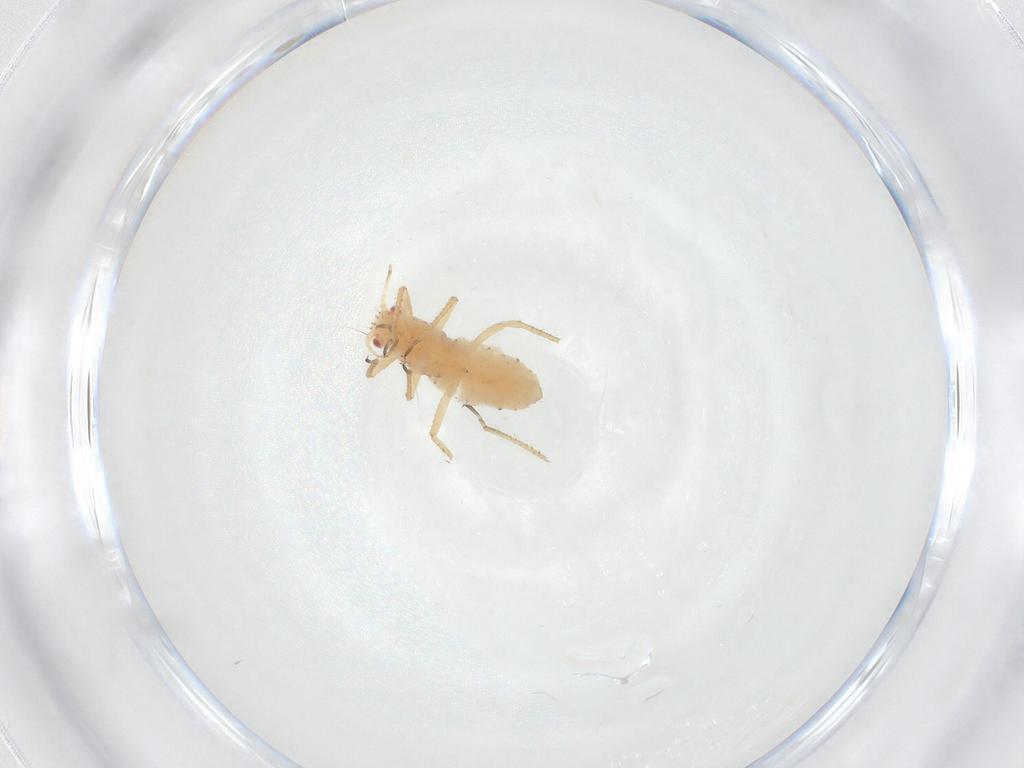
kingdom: Animalia
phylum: Arthropoda
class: Insecta
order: Hemiptera
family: Aphididae
